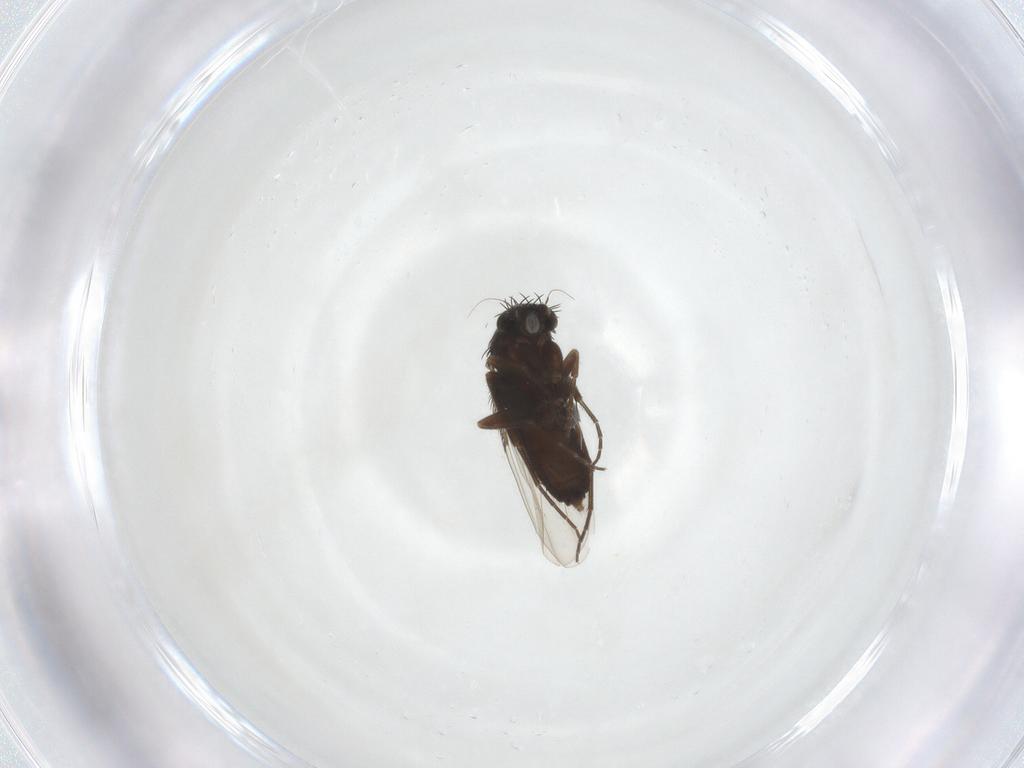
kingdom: Animalia
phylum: Arthropoda
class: Insecta
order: Diptera
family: Phoridae
